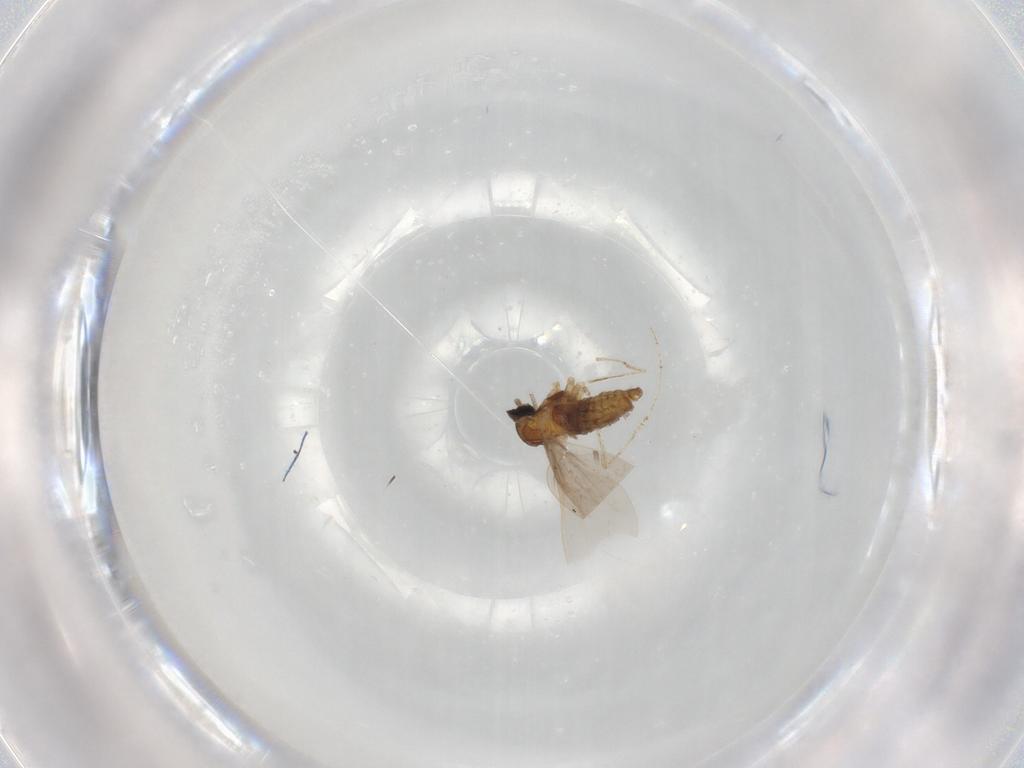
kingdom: Animalia
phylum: Arthropoda
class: Insecta
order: Diptera
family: Cecidomyiidae
